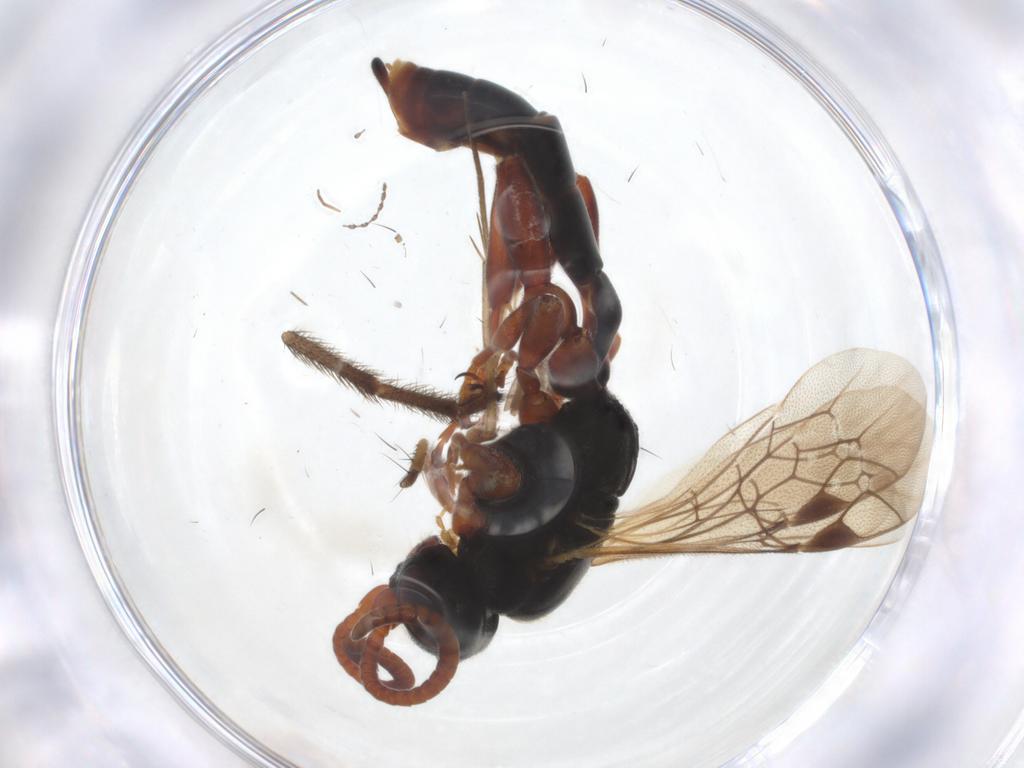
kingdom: Animalia
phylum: Arthropoda
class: Insecta
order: Hymenoptera
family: Ichneumonidae
